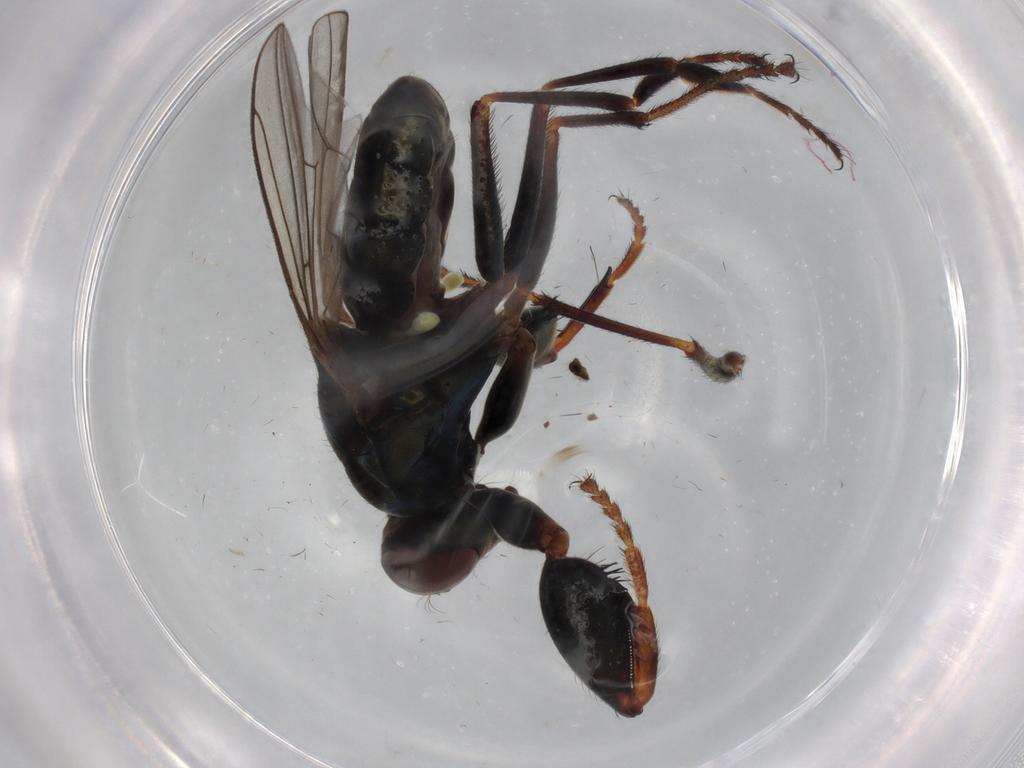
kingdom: Animalia
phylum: Arthropoda
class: Insecta
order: Diptera
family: Ephydridae
